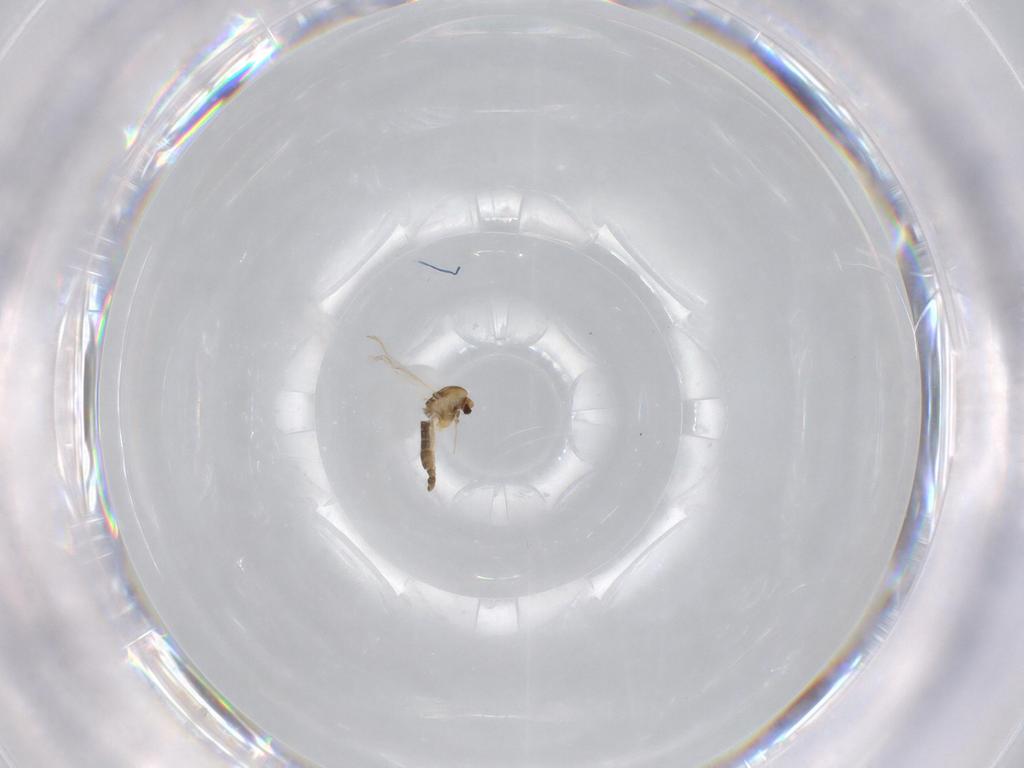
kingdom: Animalia
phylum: Arthropoda
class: Insecta
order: Diptera
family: Chironomidae
